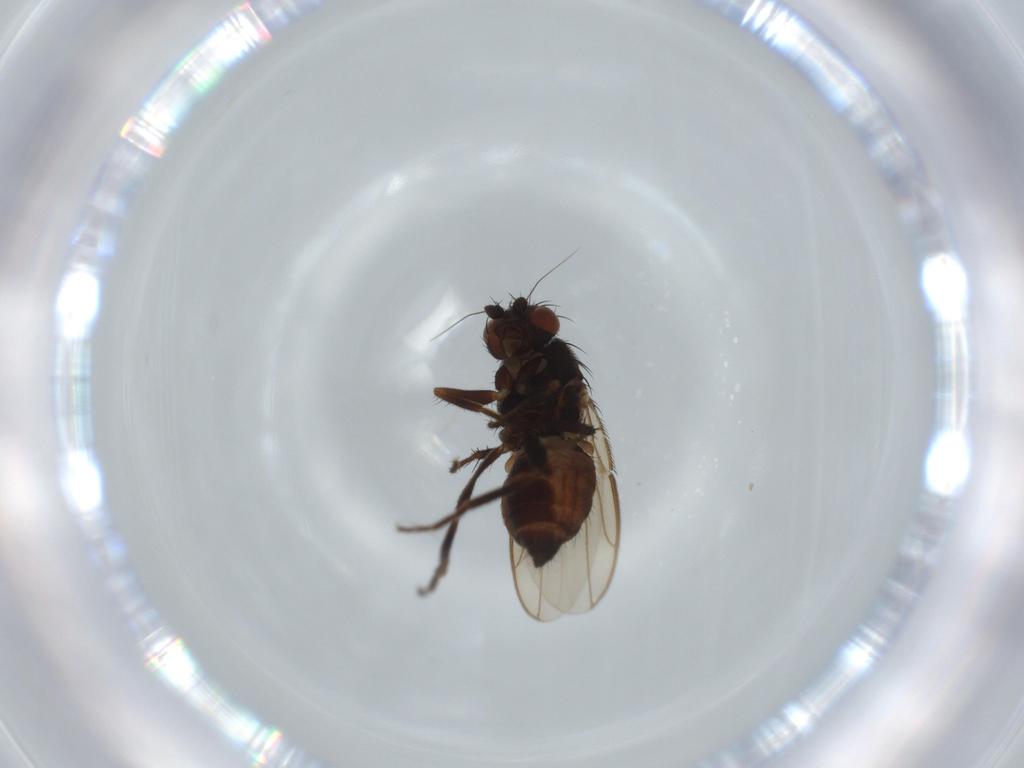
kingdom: Animalia
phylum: Arthropoda
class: Insecta
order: Diptera
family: Sphaeroceridae
